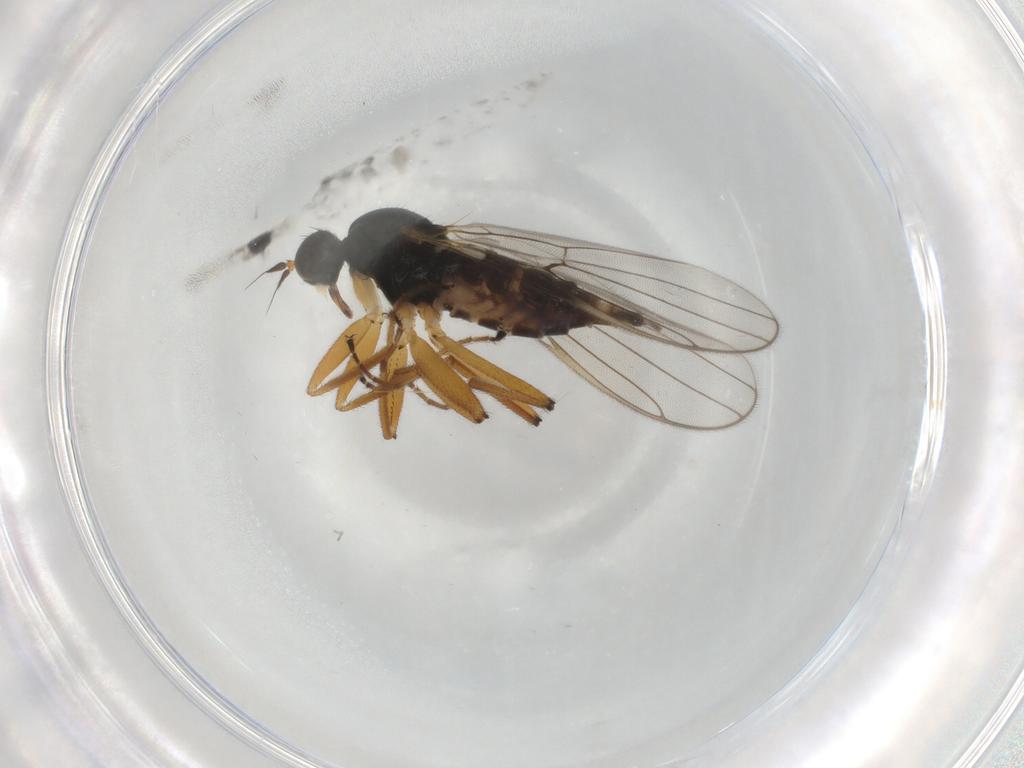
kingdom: Animalia
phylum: Arthropoda
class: Insecta
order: Diptera
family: Hybotidae
